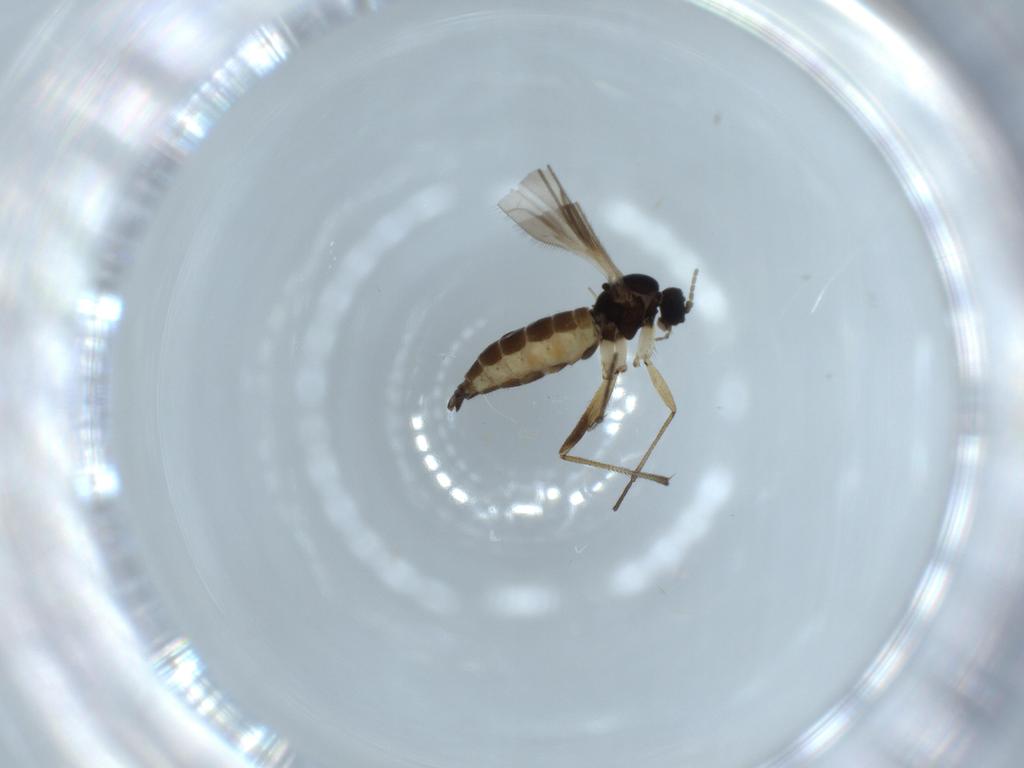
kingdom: Animalia
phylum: Arthropoda
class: Insecta
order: Diptera
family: Sciaridae
